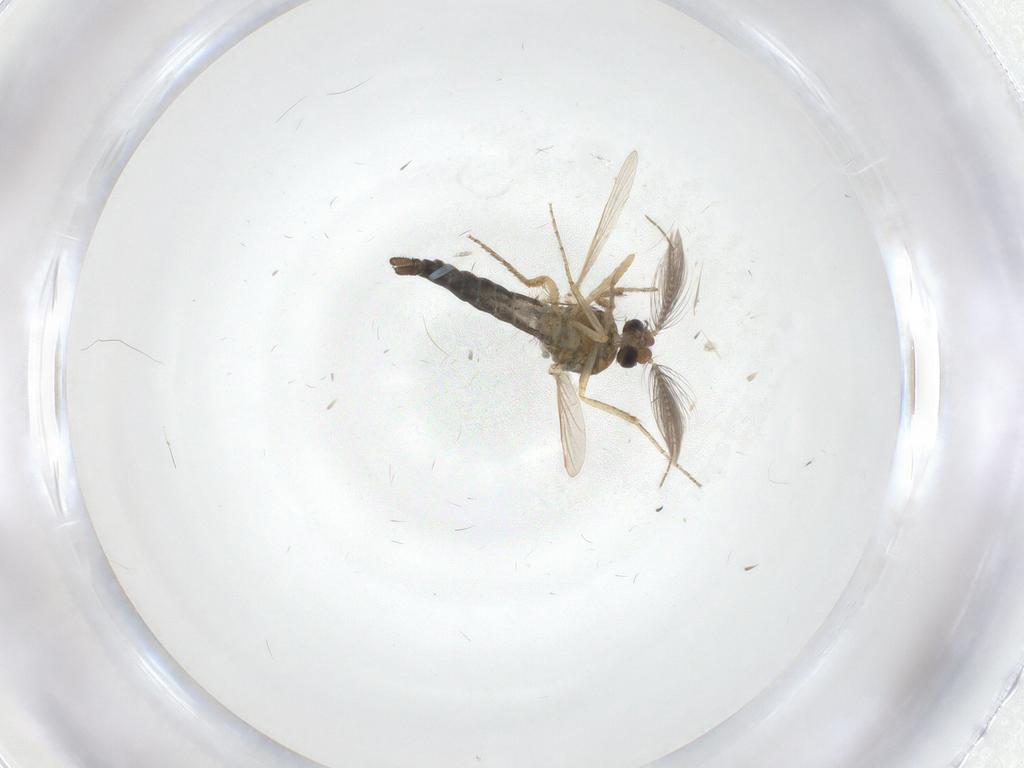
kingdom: Animalia
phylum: Arthropoda
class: Insecta
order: Diptera
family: Ceratopogonidae
